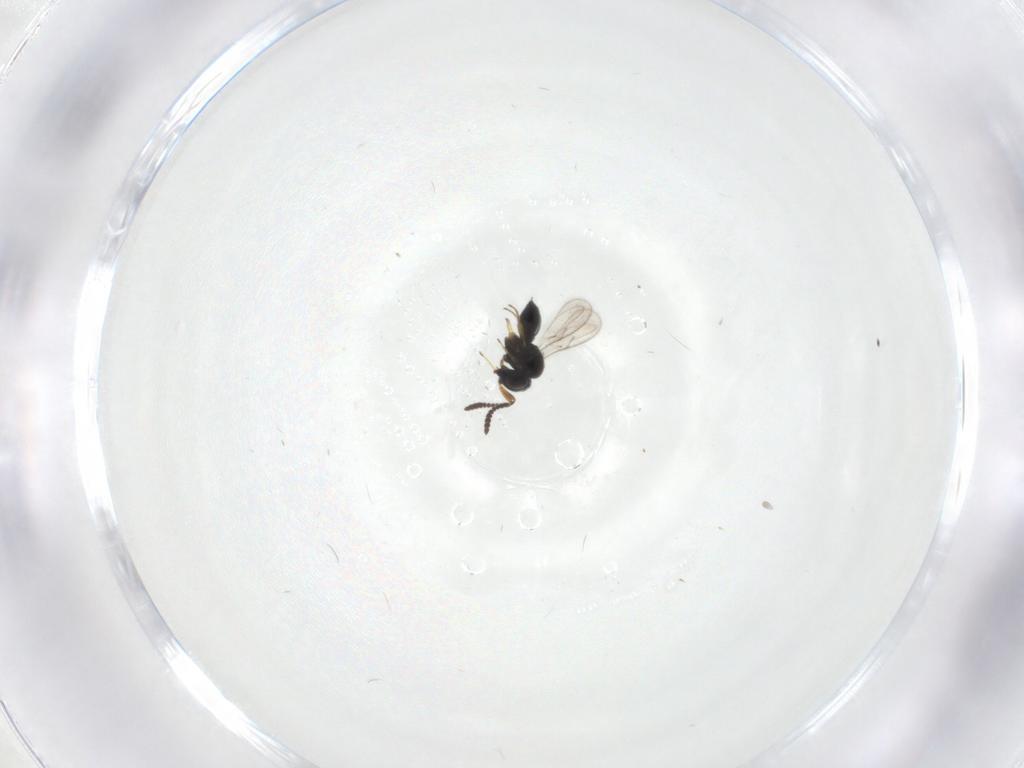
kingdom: Animalia
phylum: Arthropoda
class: Insecta
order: Hymenoptera
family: Scelionidae
